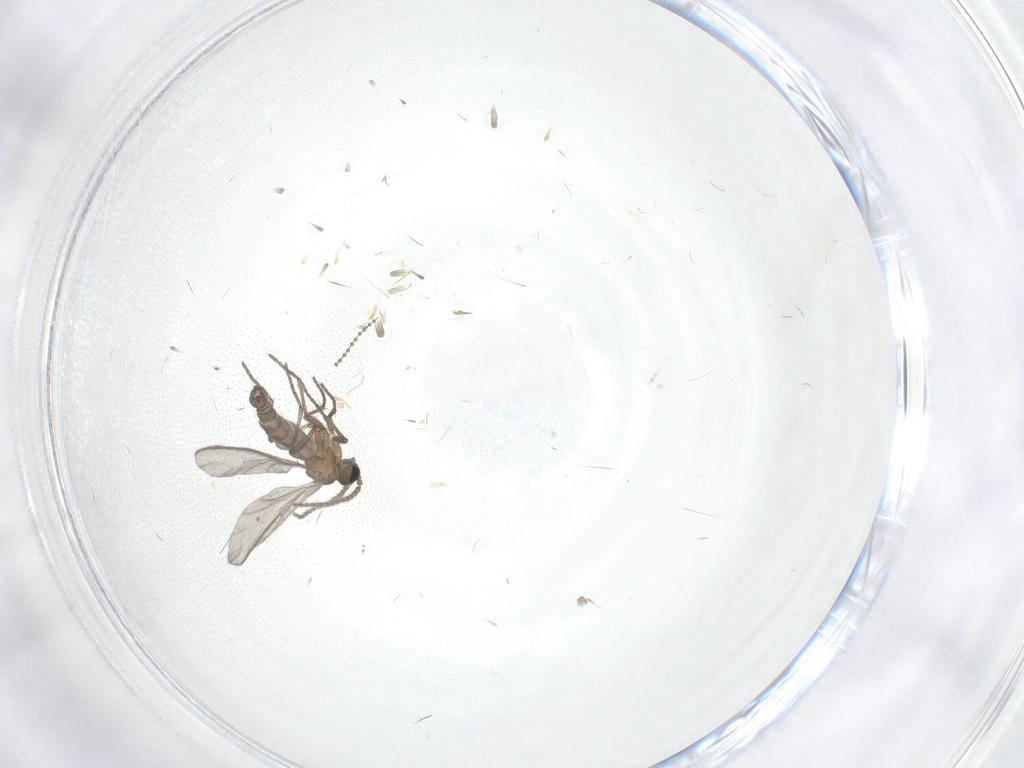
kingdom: Animalia
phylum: Arthropoda
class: Insecta
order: Diptera
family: Sciaridae
